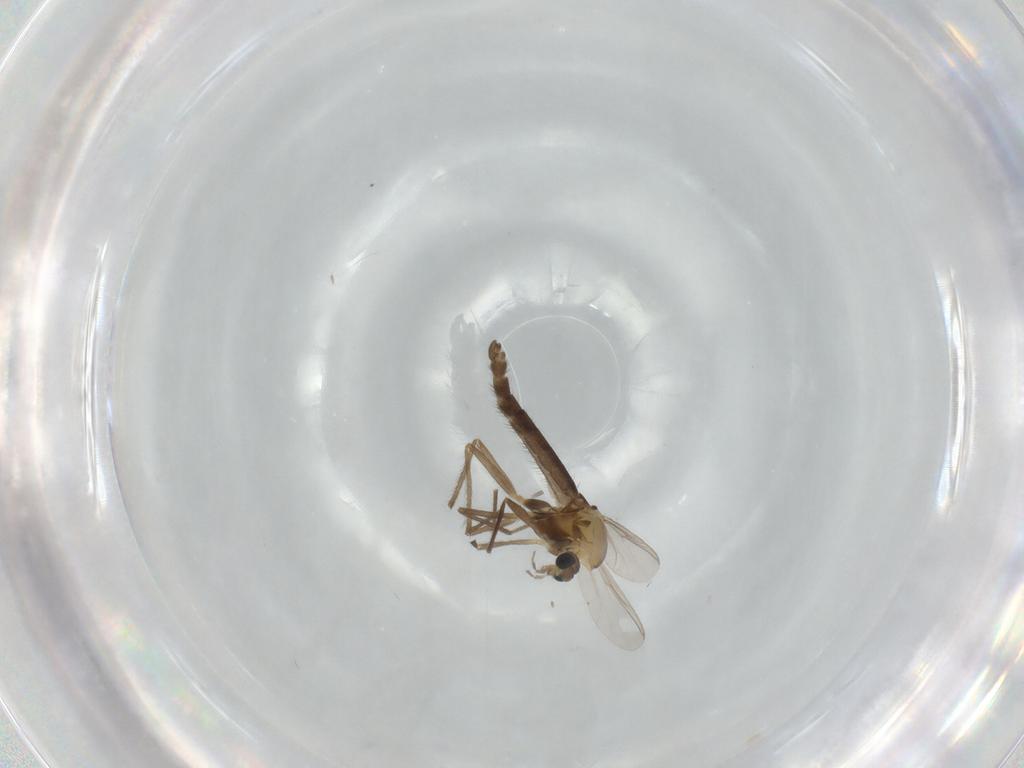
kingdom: Animalia
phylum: Arthropoda
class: Insecta
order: Diptera
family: Chironomidae
